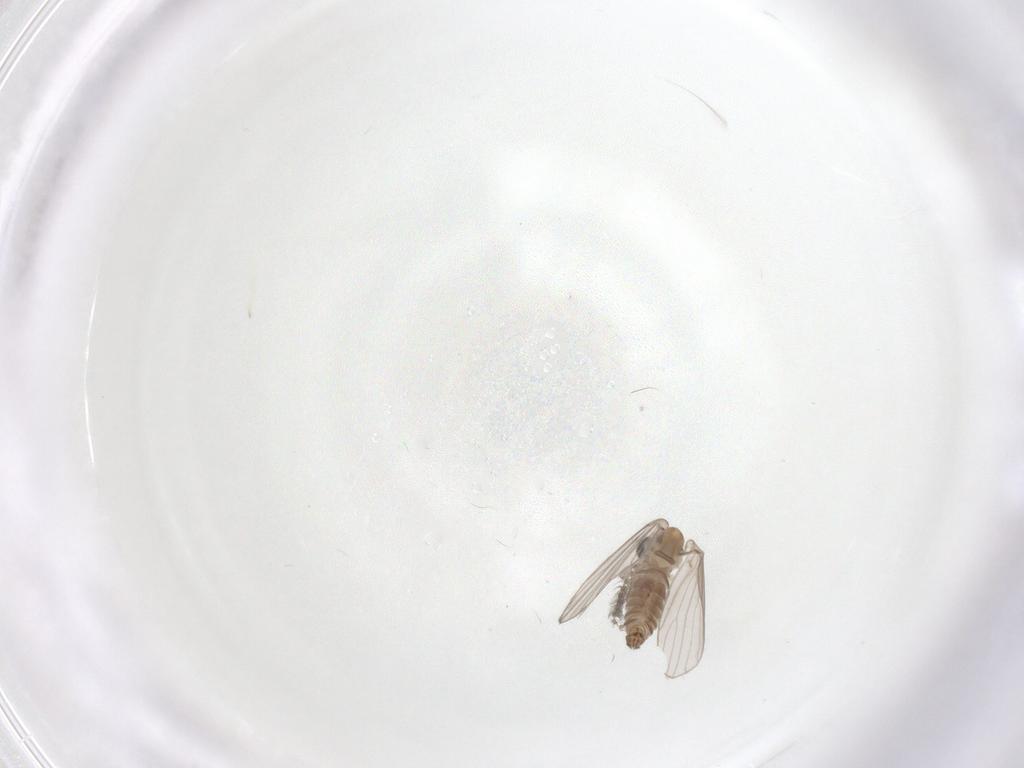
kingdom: Animalia
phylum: Arthropoda
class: Insecta
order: Diptera
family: Psychodidae
